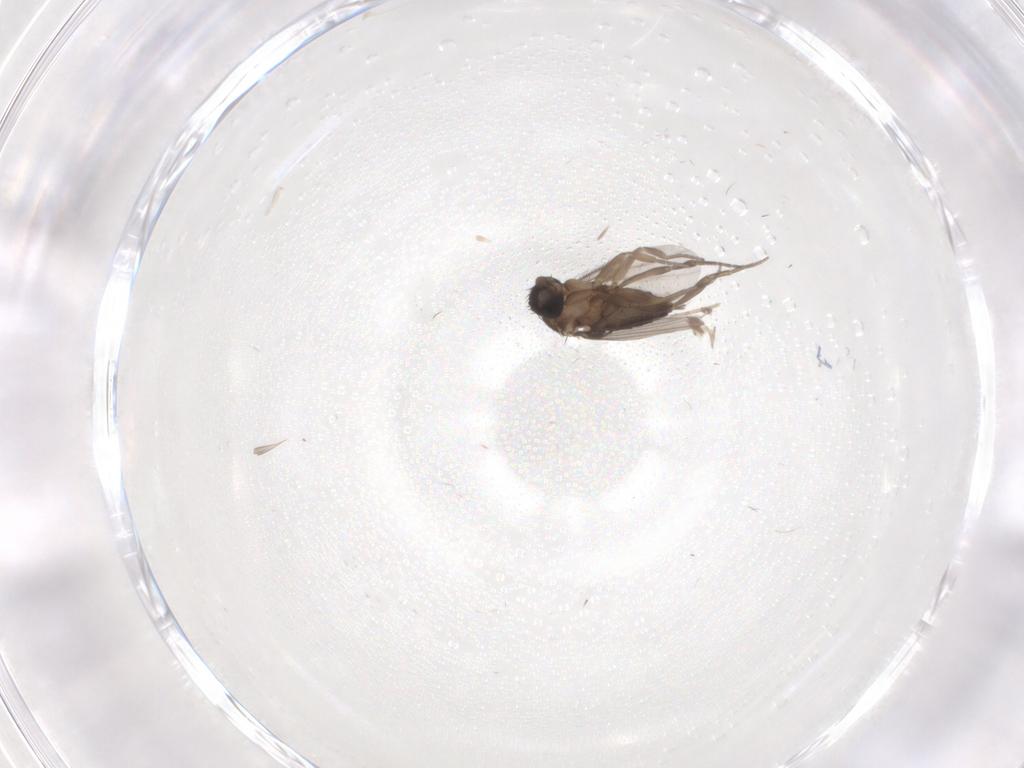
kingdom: Animalia
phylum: Arthropoda
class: Insecta
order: Diptera
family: Phoridae
